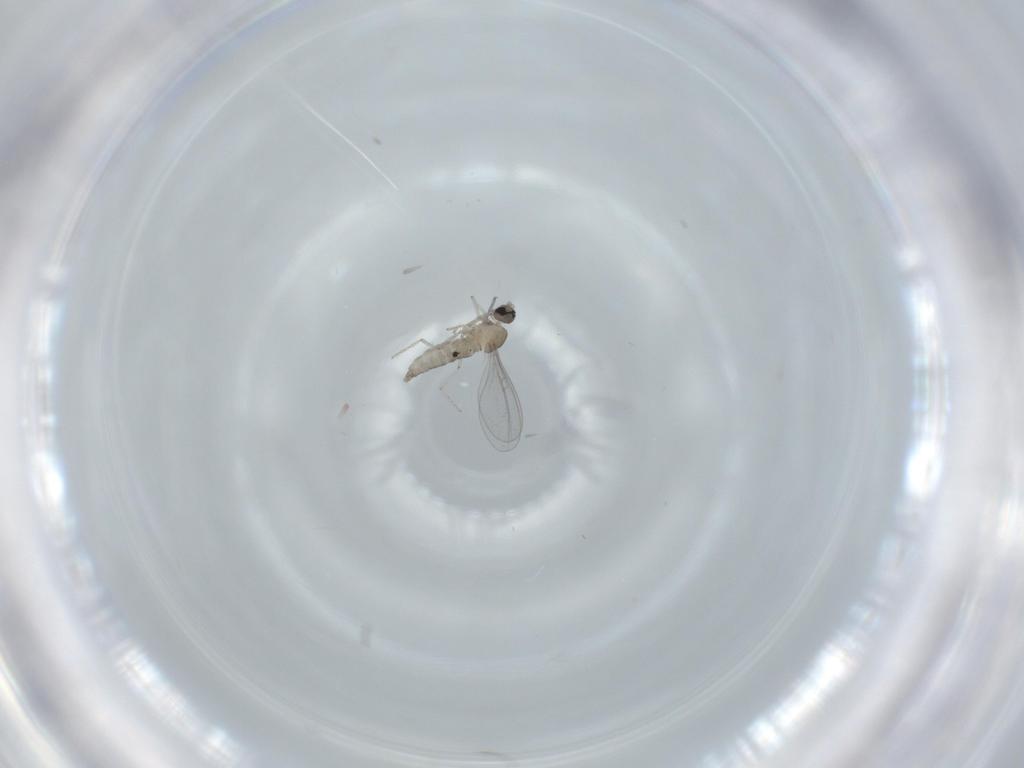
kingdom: Animalia
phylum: Arthropoda
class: Insecta
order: Diptera
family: Cecidomyiidae
